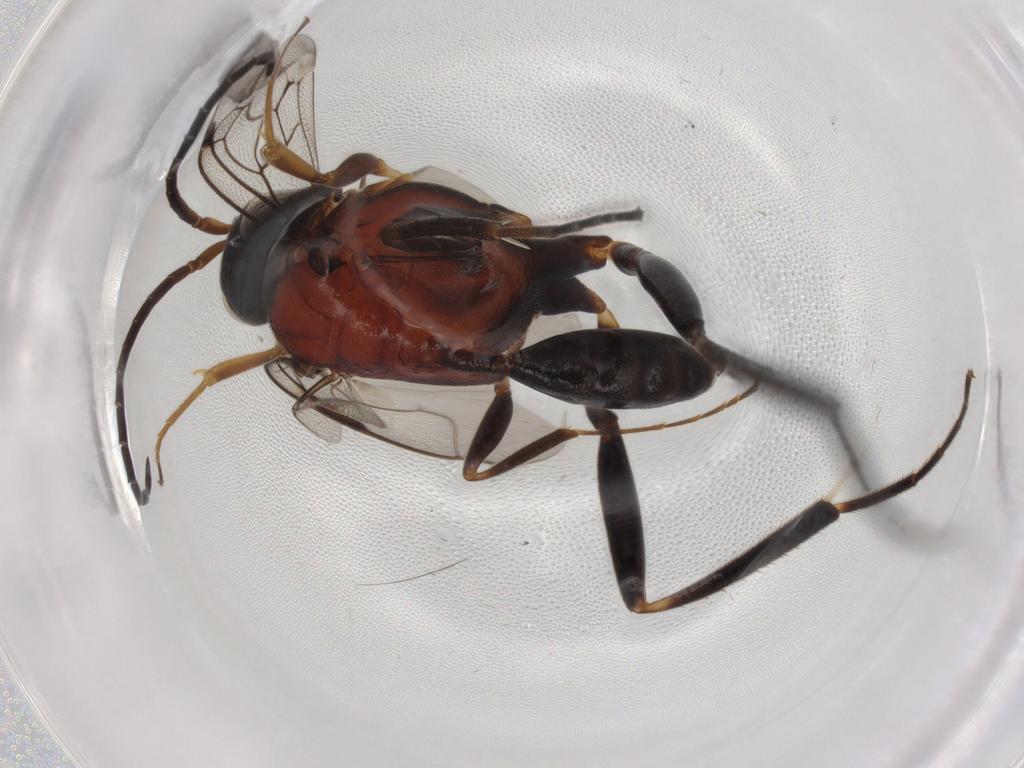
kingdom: Animalia
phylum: Arthropoda
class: Insecta
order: Hymenoptera
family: Evaniidae
